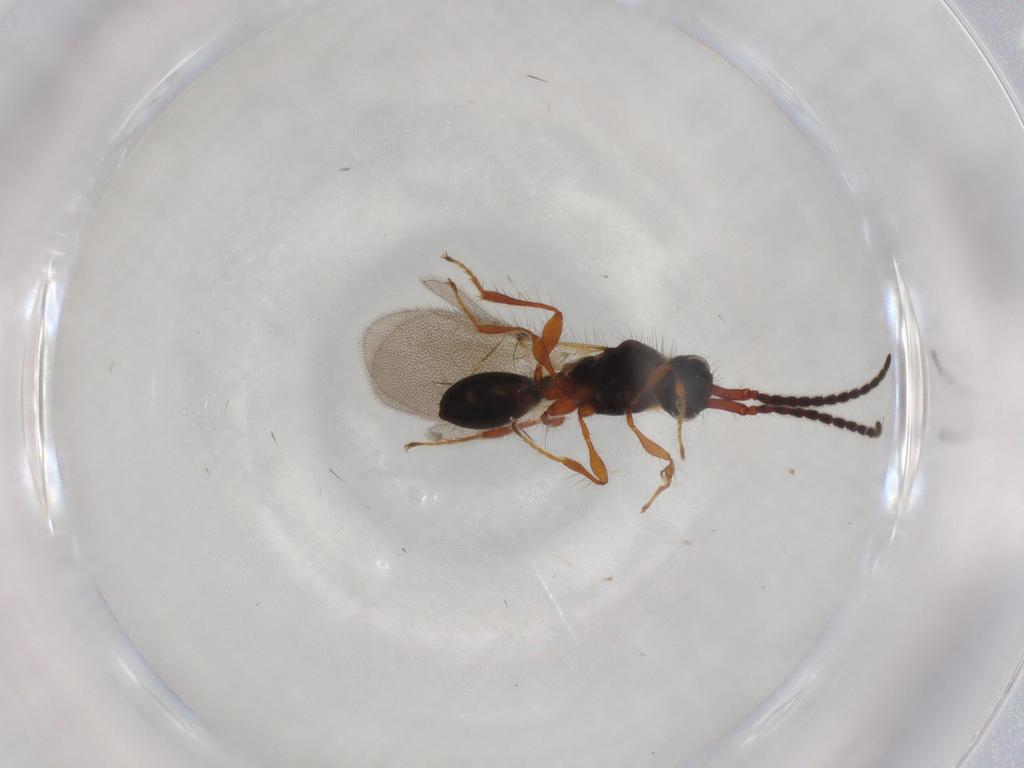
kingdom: Animalia
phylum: Arthropoda
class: Insecta
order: Hymenoptera
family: Diapriidae
